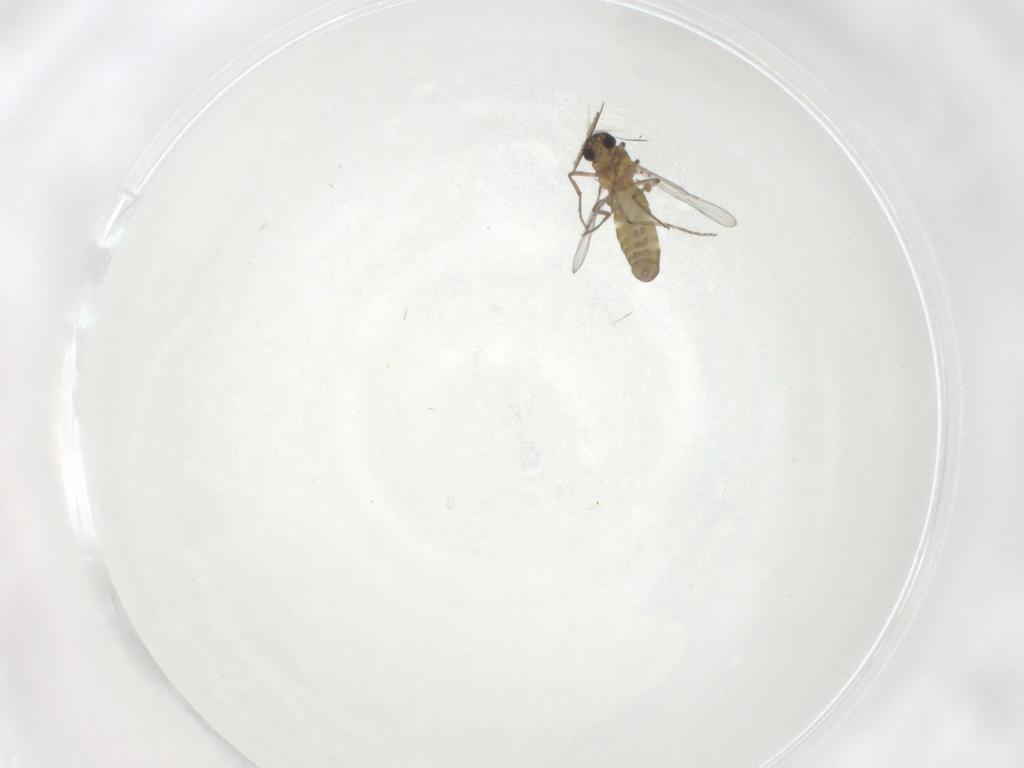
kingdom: Animalia
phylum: Arthropoda
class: Insecta
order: Diptera
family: Ceratopogonidae
